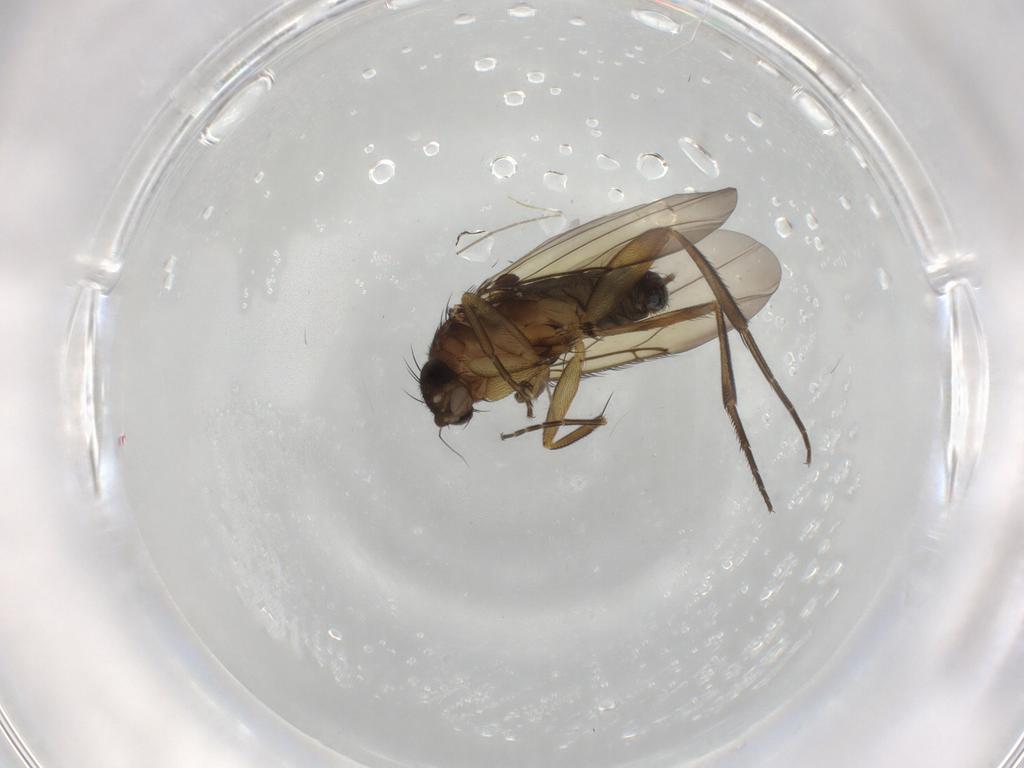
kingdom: Animalia
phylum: Arthropoda
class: Insecta
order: Diptera
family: Phoridae
